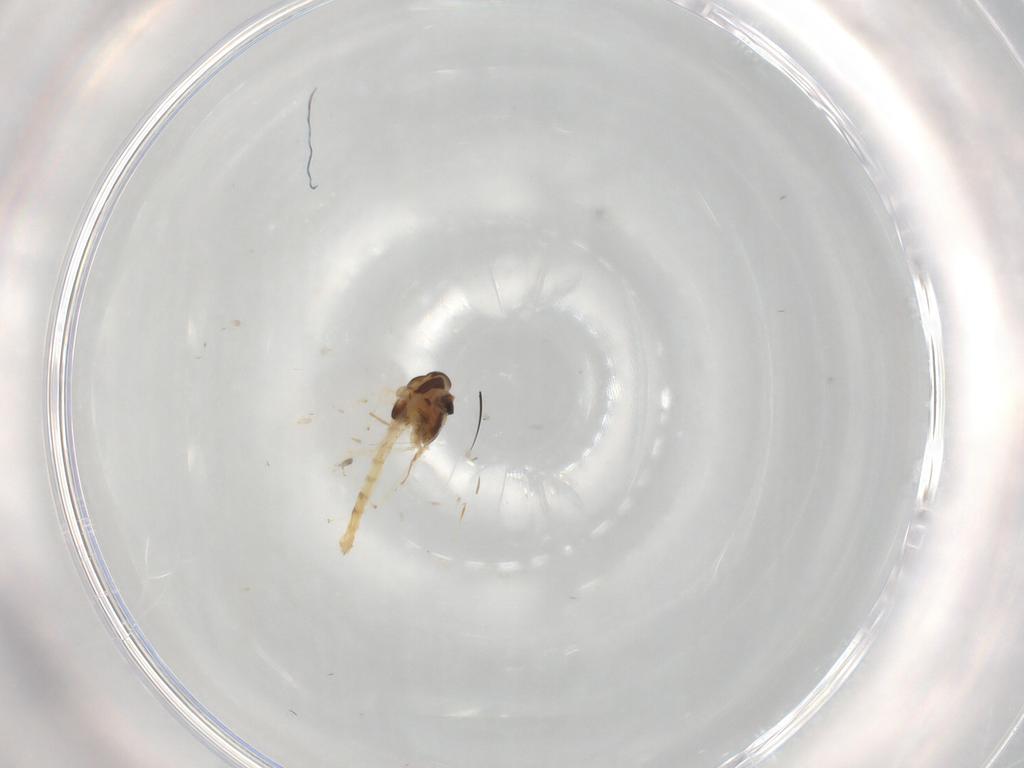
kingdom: Animalia
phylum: Arthropoda
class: Insecta
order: Diptera
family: Chironomidae
